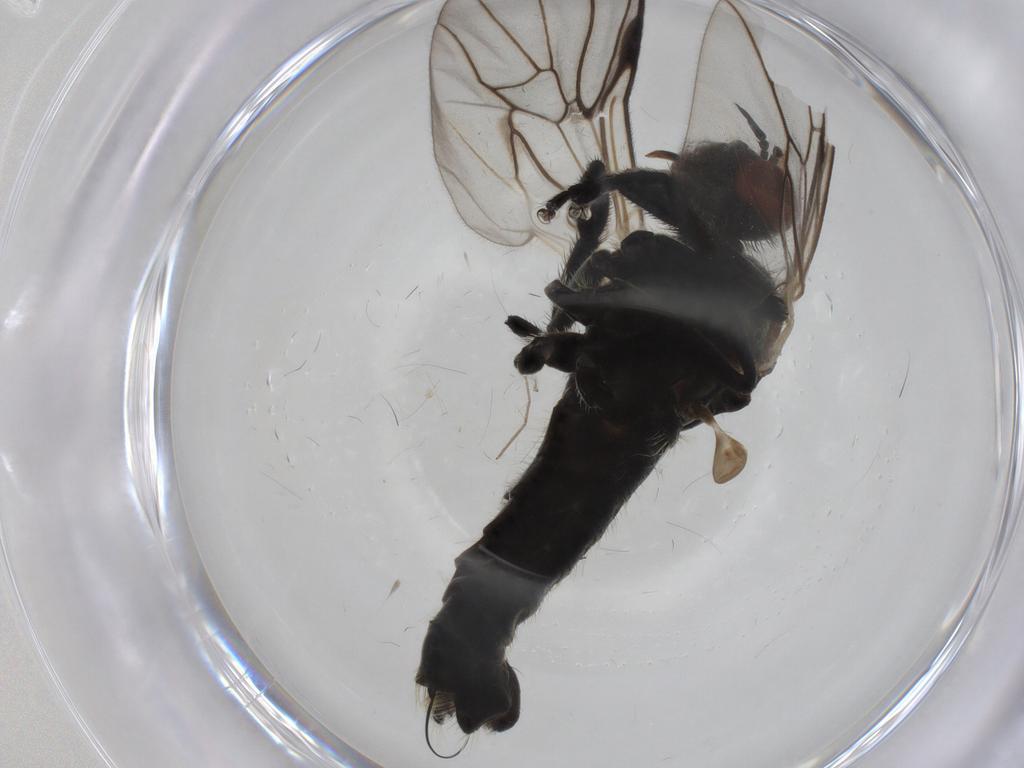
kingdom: Animalia
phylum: Arthropoda
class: Insecta
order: Diptera
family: Empididae
